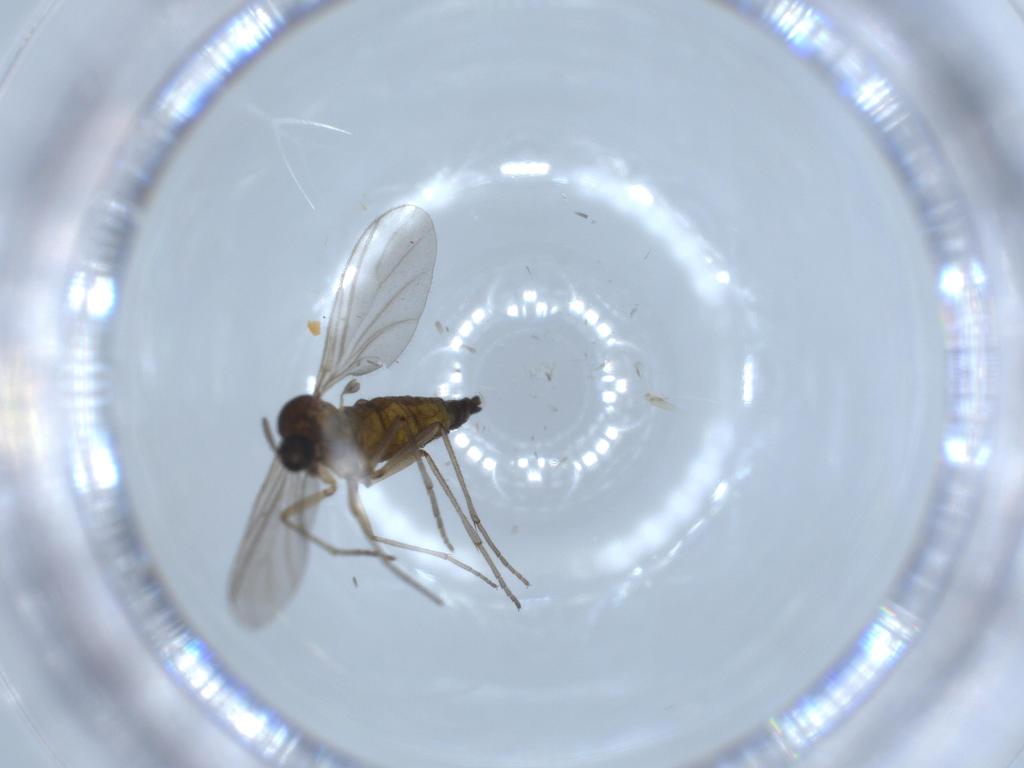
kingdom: Animalia
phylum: Arthropoda
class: Insecta
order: Diptera
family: Sciaridae
